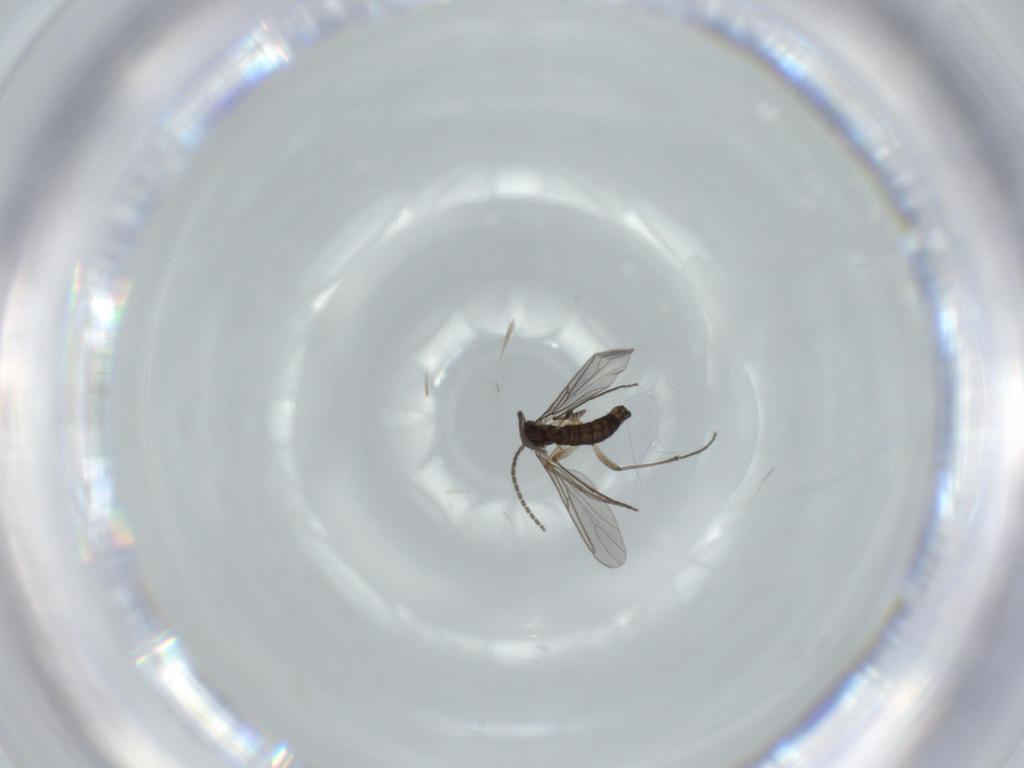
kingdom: Animalia
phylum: Arthropoda
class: Insecta
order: Diptera
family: Sciaridae
